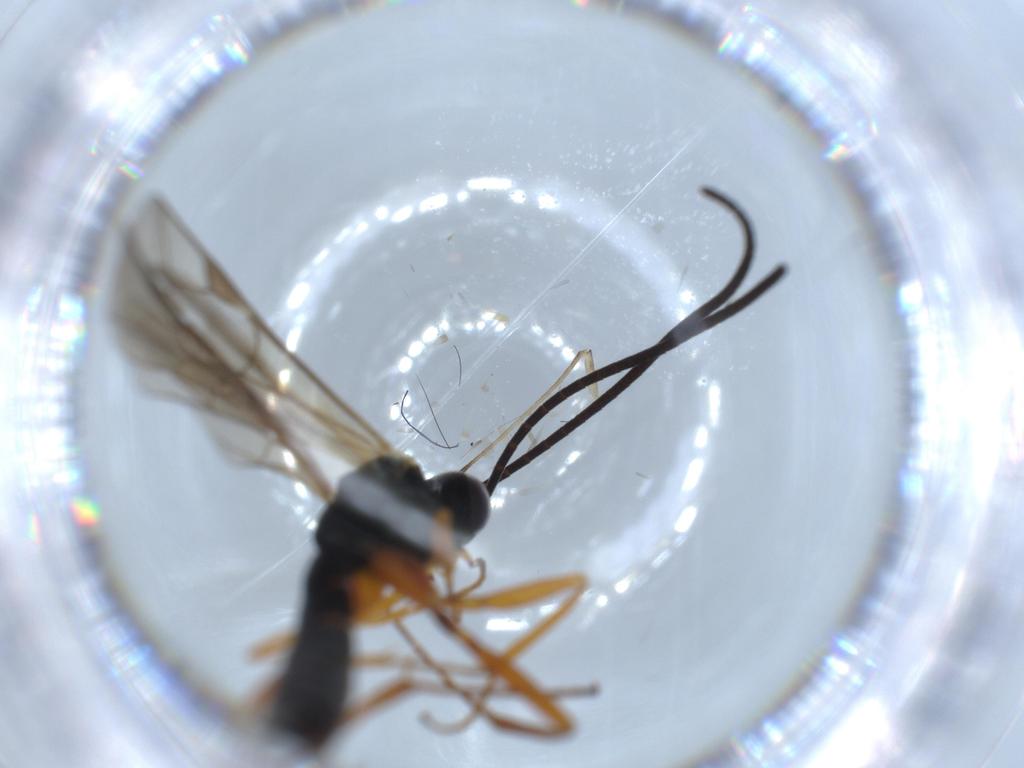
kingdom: Animalia
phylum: Arthropoda
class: Insecta
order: Hymenoptera
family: Ichneumonidae
